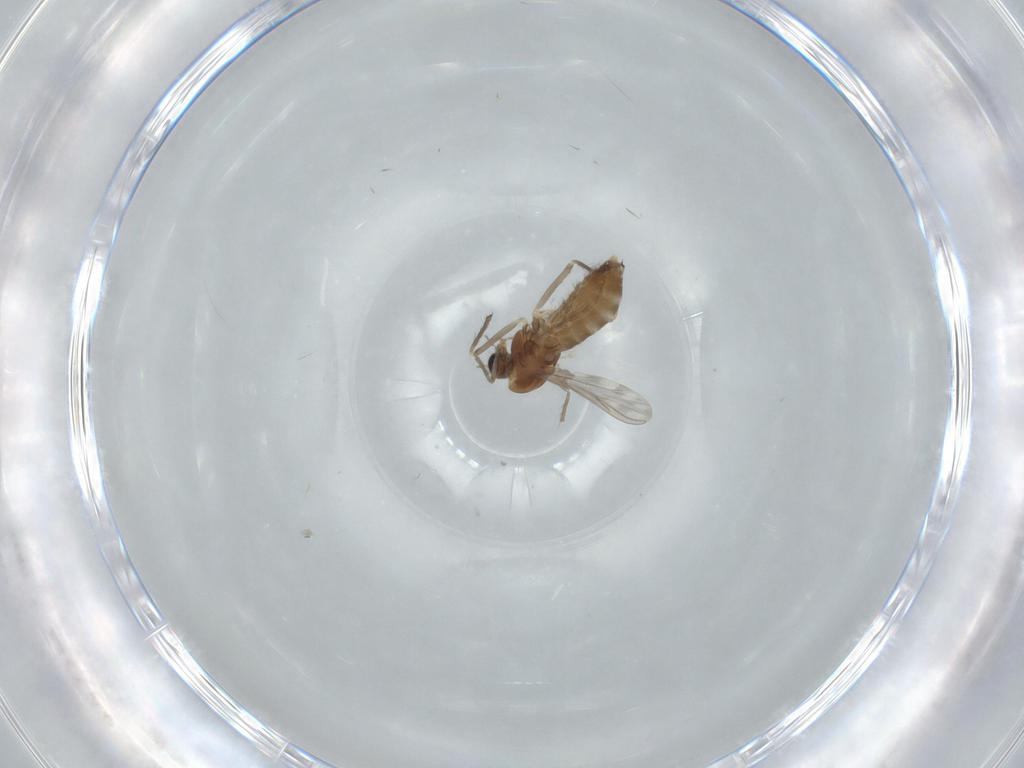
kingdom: Animalia
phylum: Arthropoda
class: Insecta
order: Diptera
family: Chironomidae
